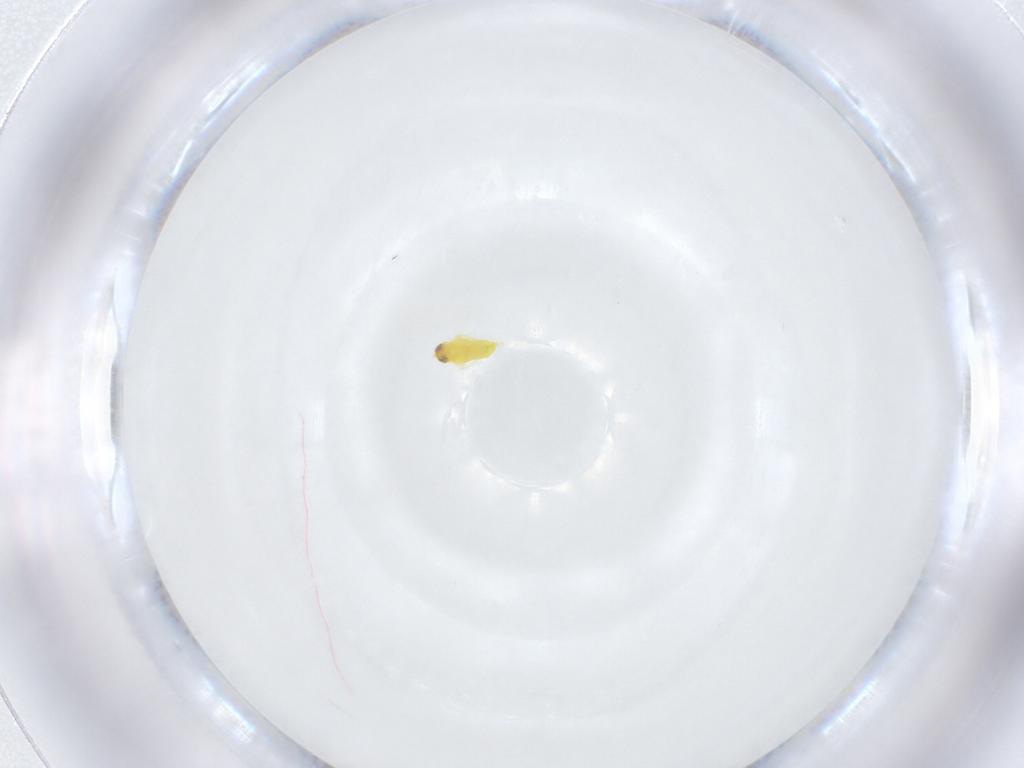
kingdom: Animalia
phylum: Arthropoda
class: Insecta
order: Hymenoptera
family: Aphelinidae
